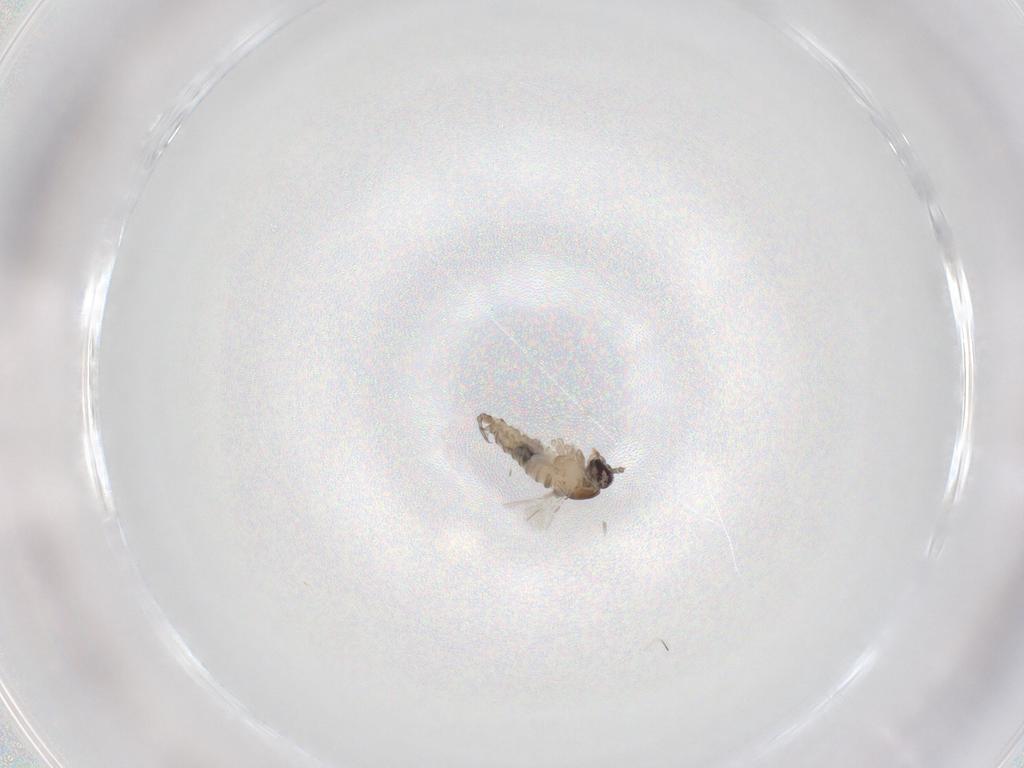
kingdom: Animalia
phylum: Arthropoda
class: Insecta
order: Diptera
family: Psychodidae
